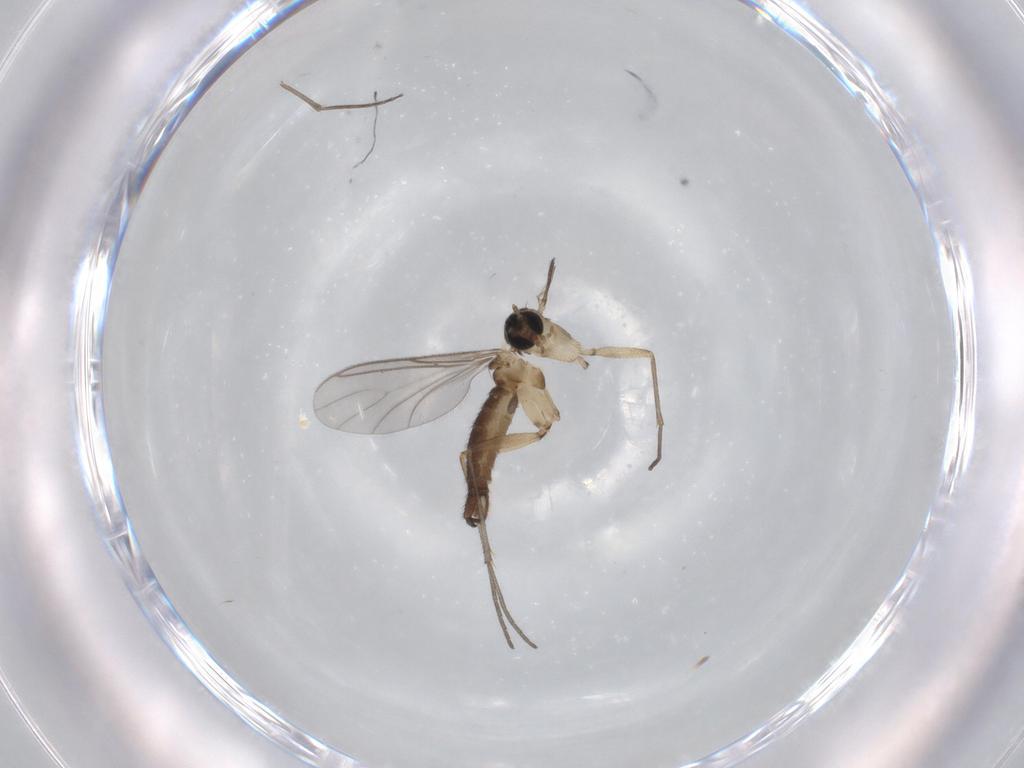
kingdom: Animalia
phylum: Arthropoda
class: Insecta
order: Diptera
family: Sciaridae
